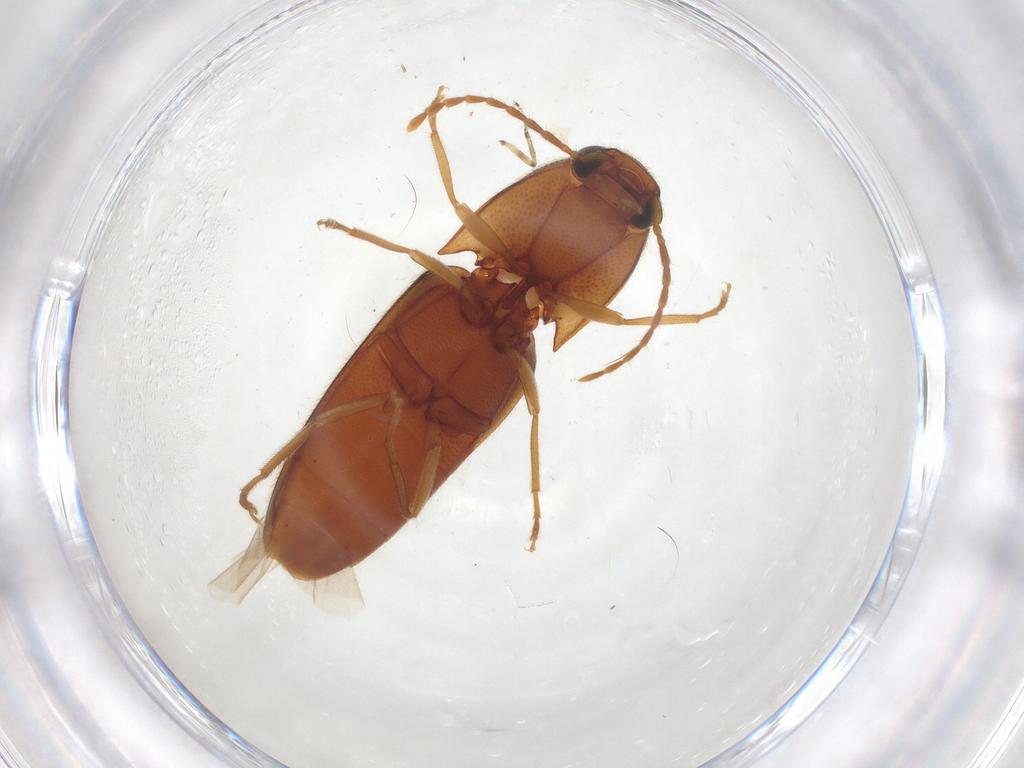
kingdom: Animalia
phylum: Arthropoda
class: Insecta
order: Coleoptera
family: Elateridae
